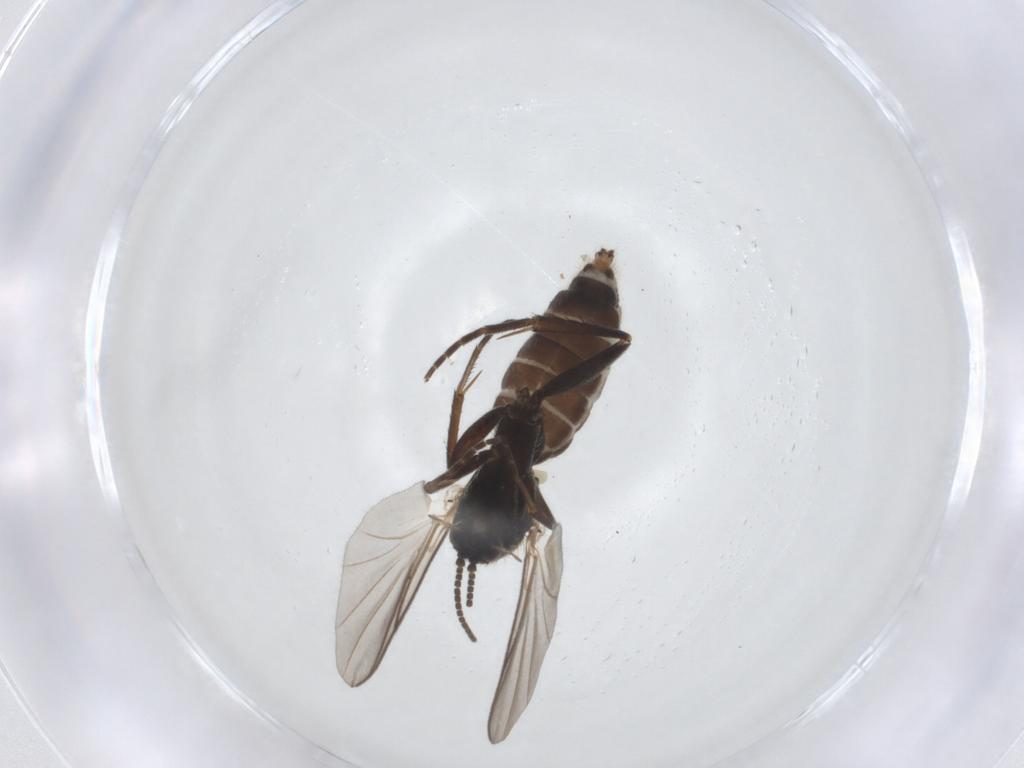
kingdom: Animalia
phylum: Arthropoda
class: Insecta
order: Diptera
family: Mycetophilidae
